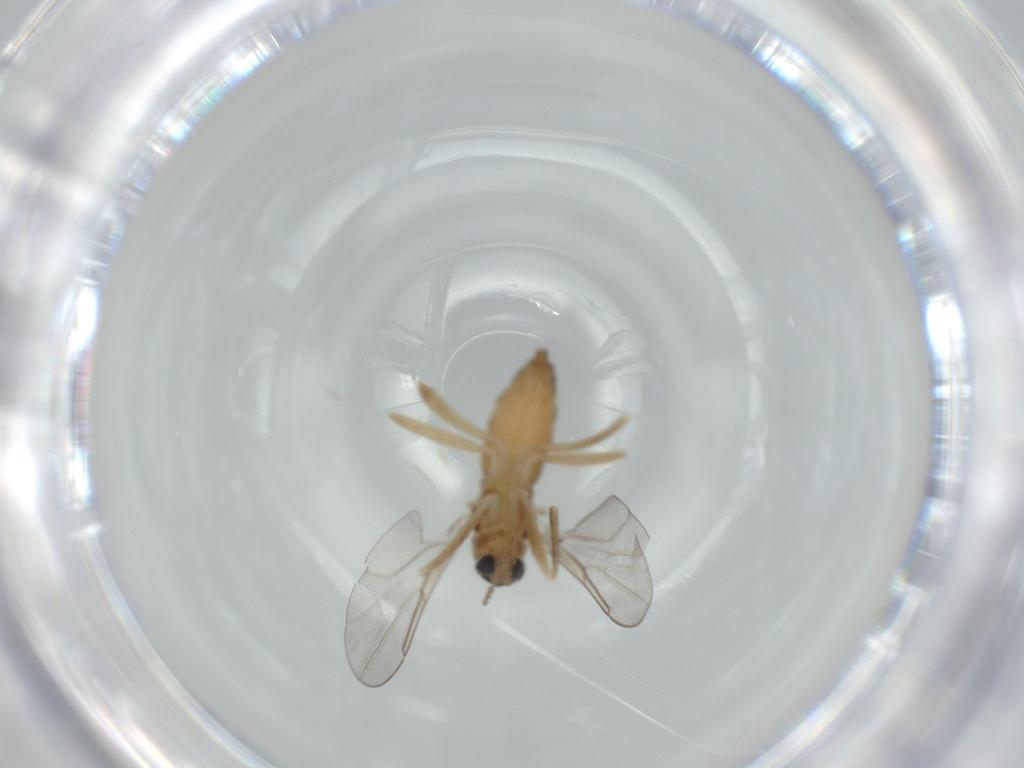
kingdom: Animalia
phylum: Arthropoda
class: Insecta
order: Diptera
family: Cecidomyiidae
